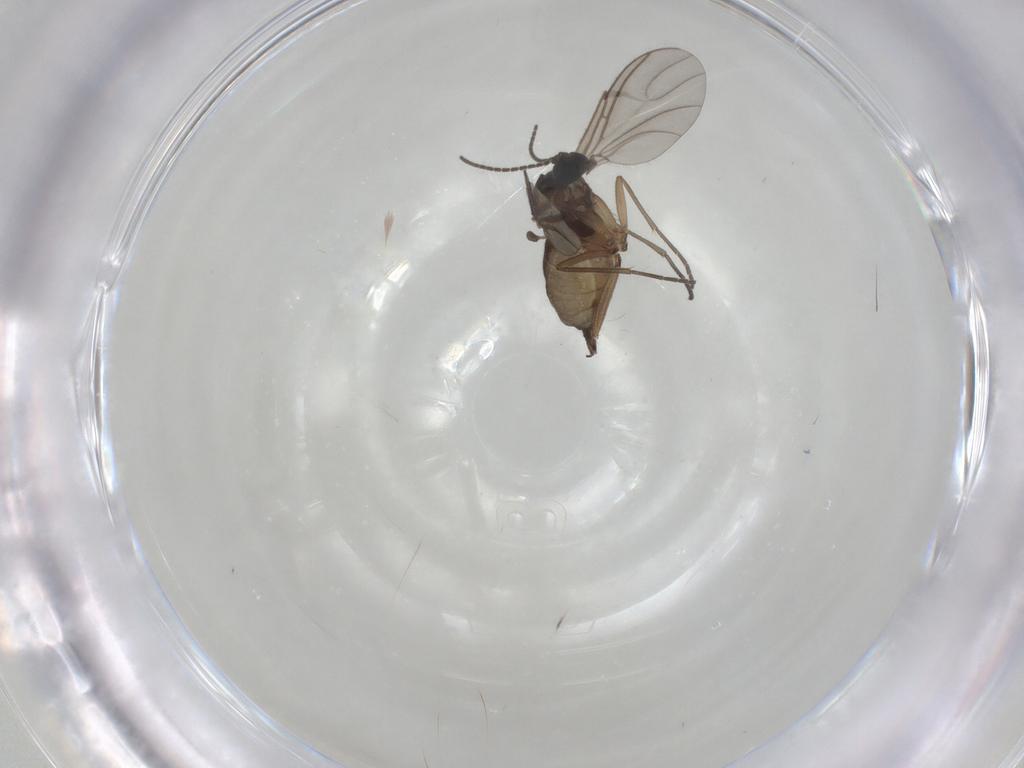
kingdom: Animalia
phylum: Arthropoda
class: Insecta
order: Diptera
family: Sciaridae
